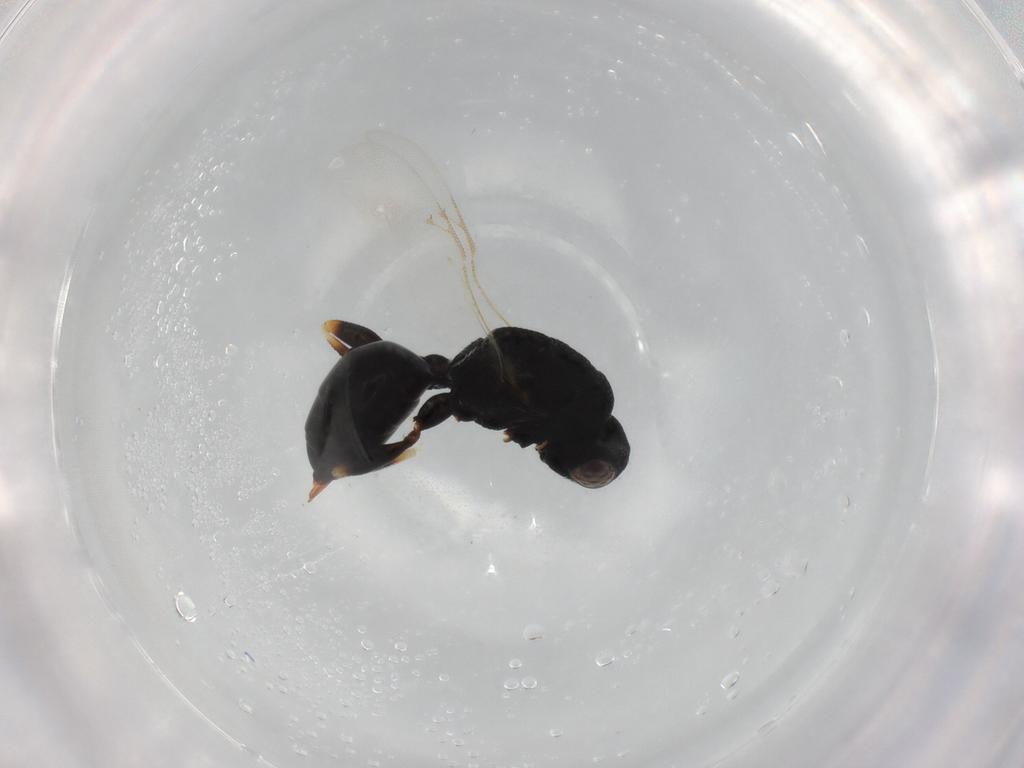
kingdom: Animalia
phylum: Arthropoda
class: Insecta
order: Hymenoptera
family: Eurytomidae
